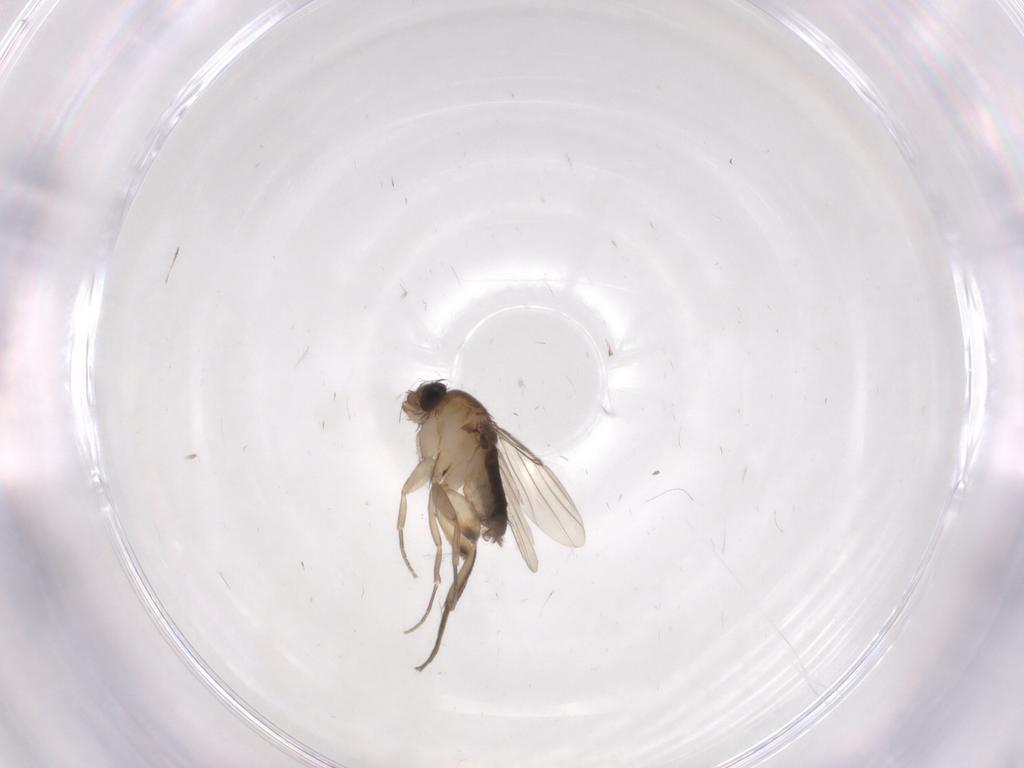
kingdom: Animalia
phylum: Arthropoda
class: Insecta
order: Diptera
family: Phoridae
